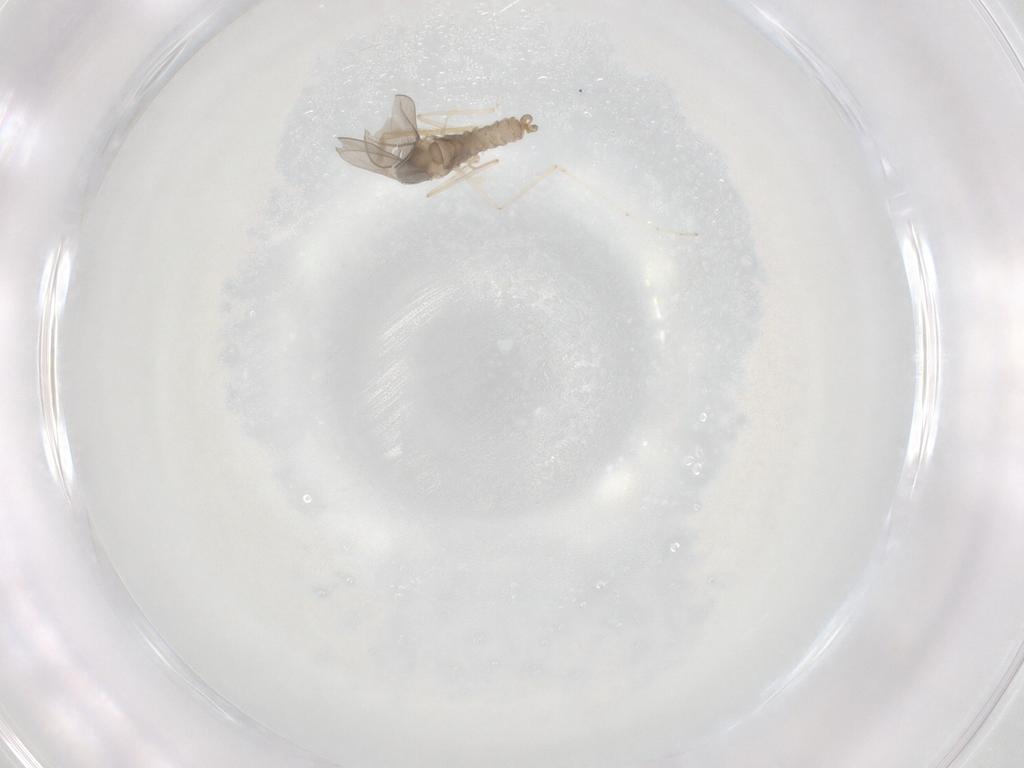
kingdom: Animalia
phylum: Arthropoda
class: Insecta
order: Diptera
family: Cecidomyiidae
